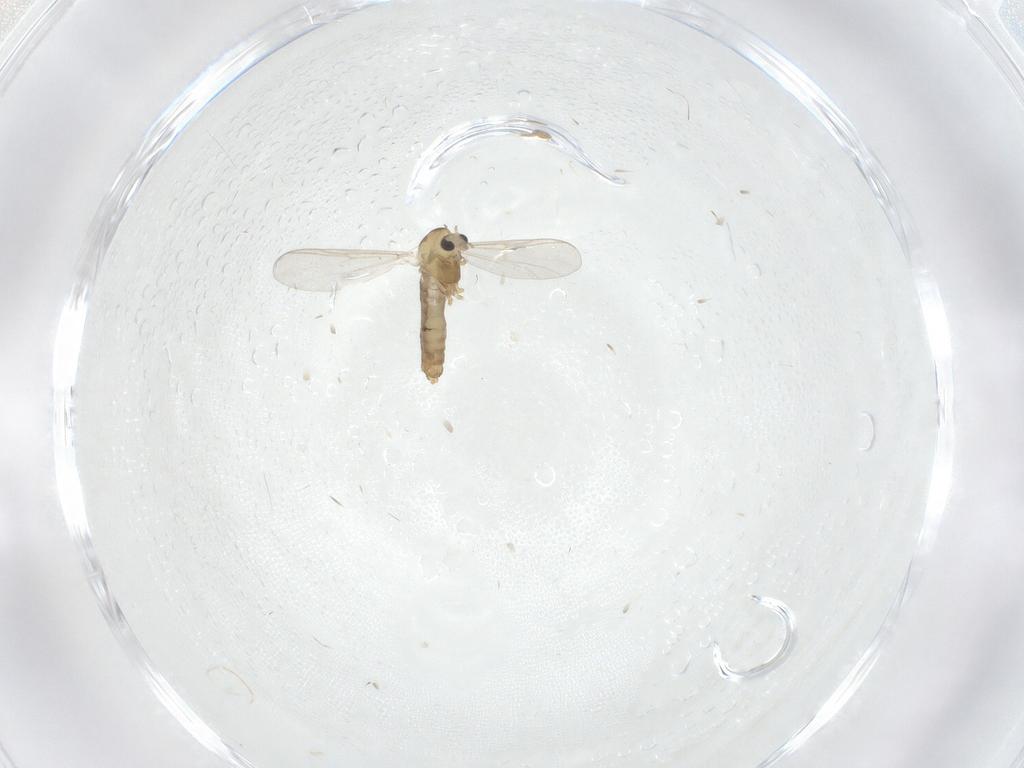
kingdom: Animalia
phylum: Arthropoda
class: Insecta
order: Diptera
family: Chironomidae
